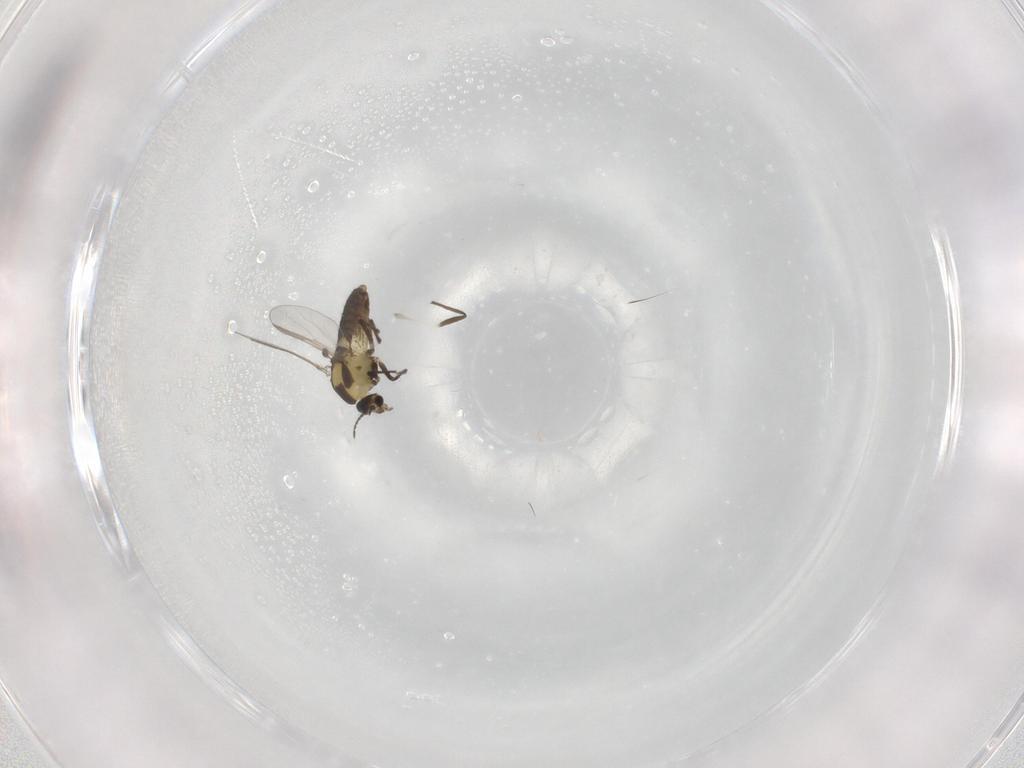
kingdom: Animalia
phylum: Arthropoda
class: Insecta
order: Diptera
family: Chironomidae
